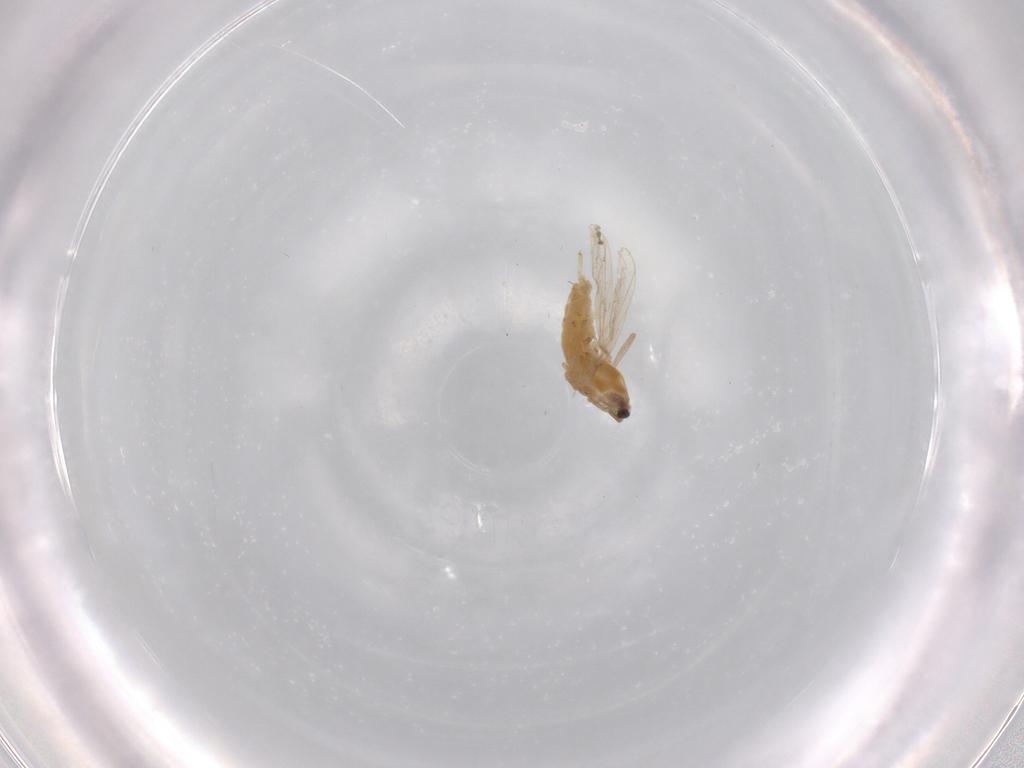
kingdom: Animalia
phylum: Arthropoda
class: Insecta
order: Diptera
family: Chironomidae
